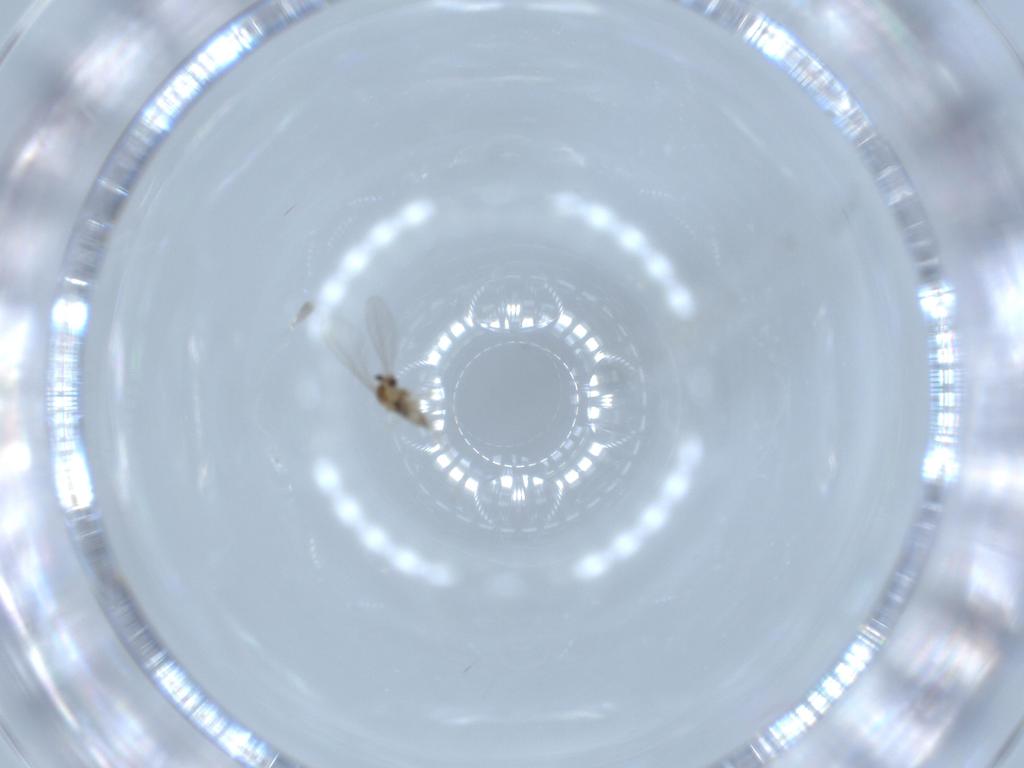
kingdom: Animalia
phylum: Arthropoda
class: Insecta
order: Diptera
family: Cecidomyiidae
